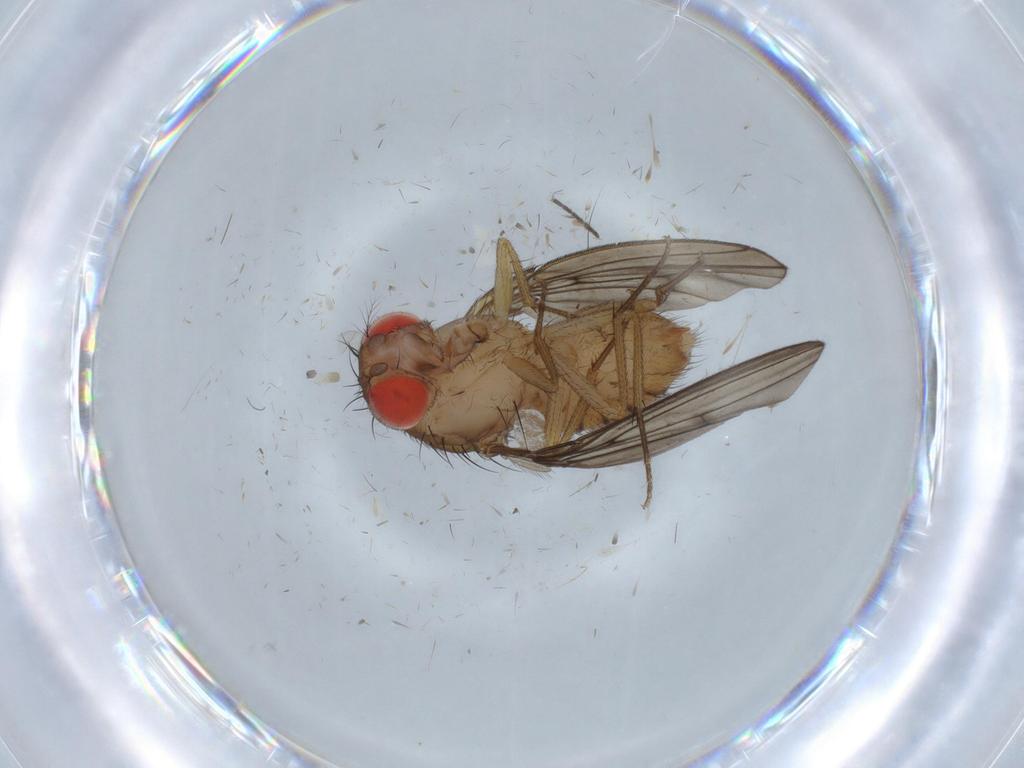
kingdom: Animalia
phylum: Arthropoda
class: Insecta
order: Diptera
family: Drosophilidae
